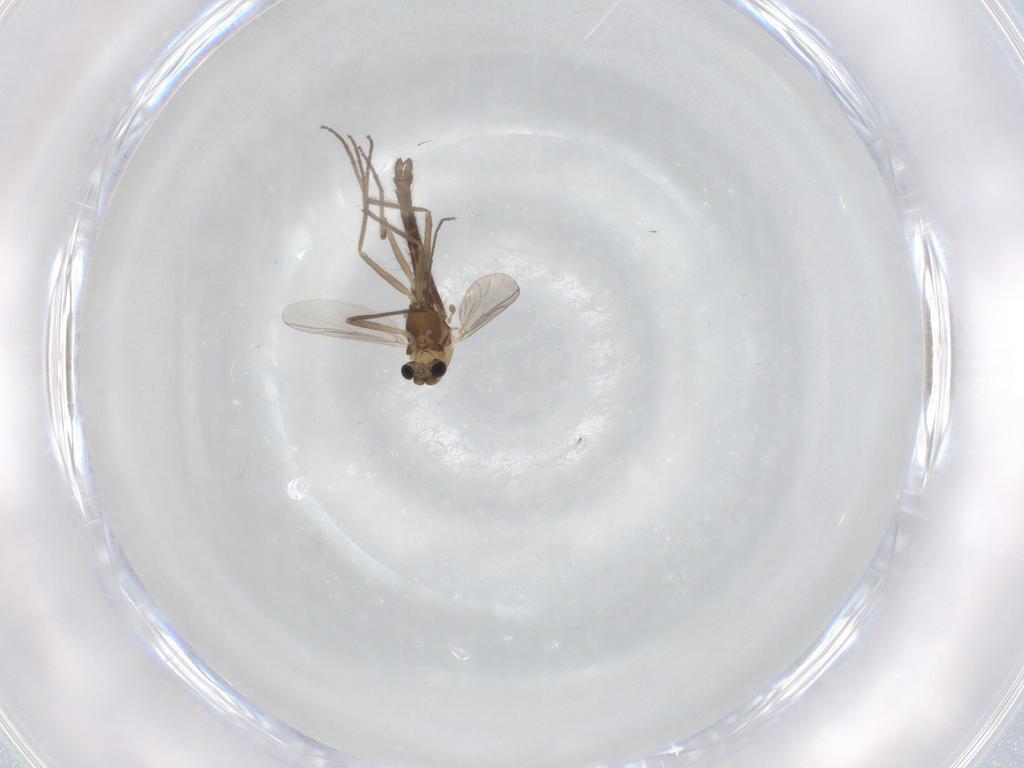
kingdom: Animalia
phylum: Arthropoda
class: Insecta
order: Diptera
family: Chironomidae
